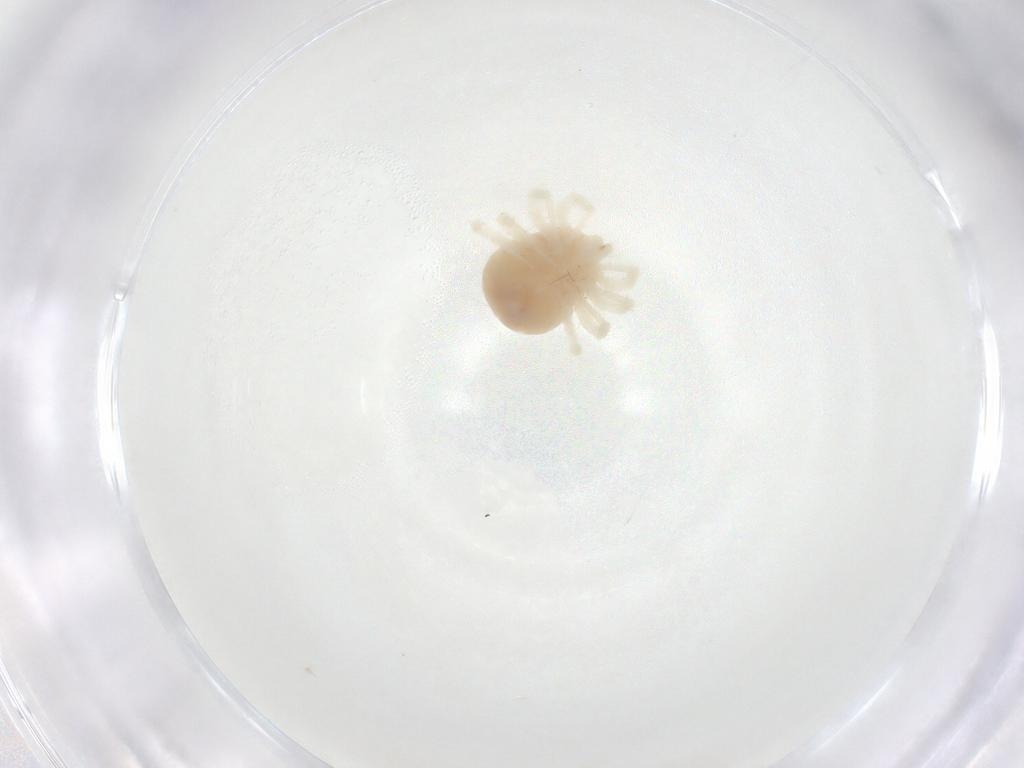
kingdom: Animalia
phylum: Arthropoda
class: Arachnida
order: Trombidiformes
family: Anystidae
